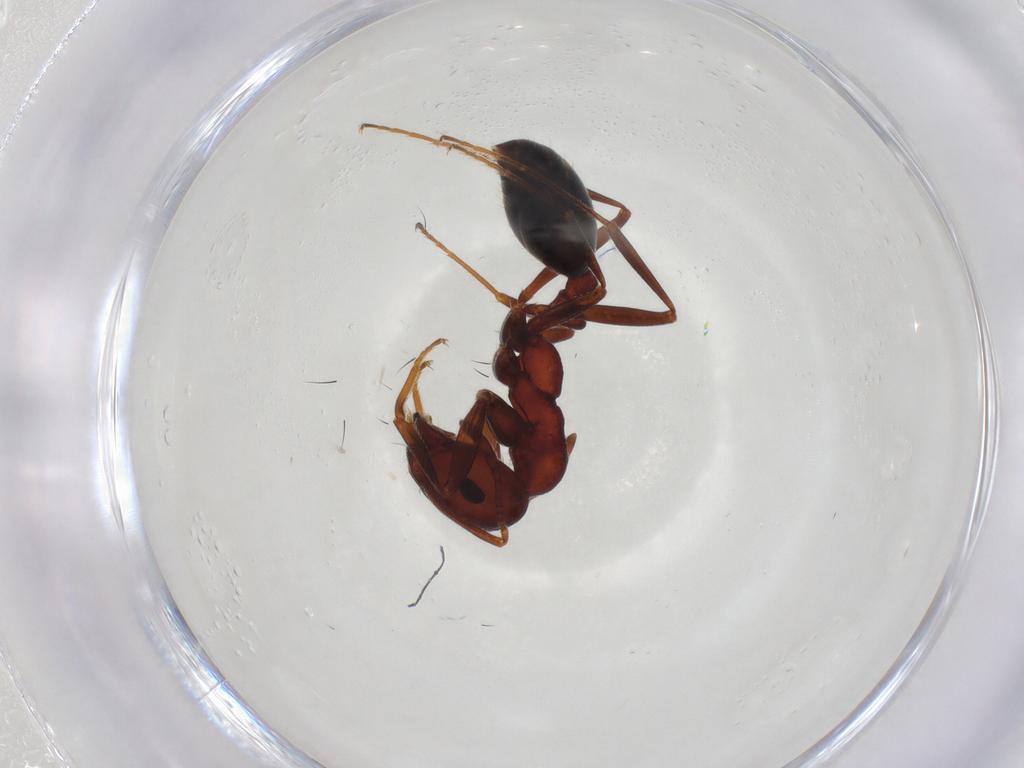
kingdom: Animalia
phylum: Arthropoda
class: Insecta
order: Hymenoptera
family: Formicidae
